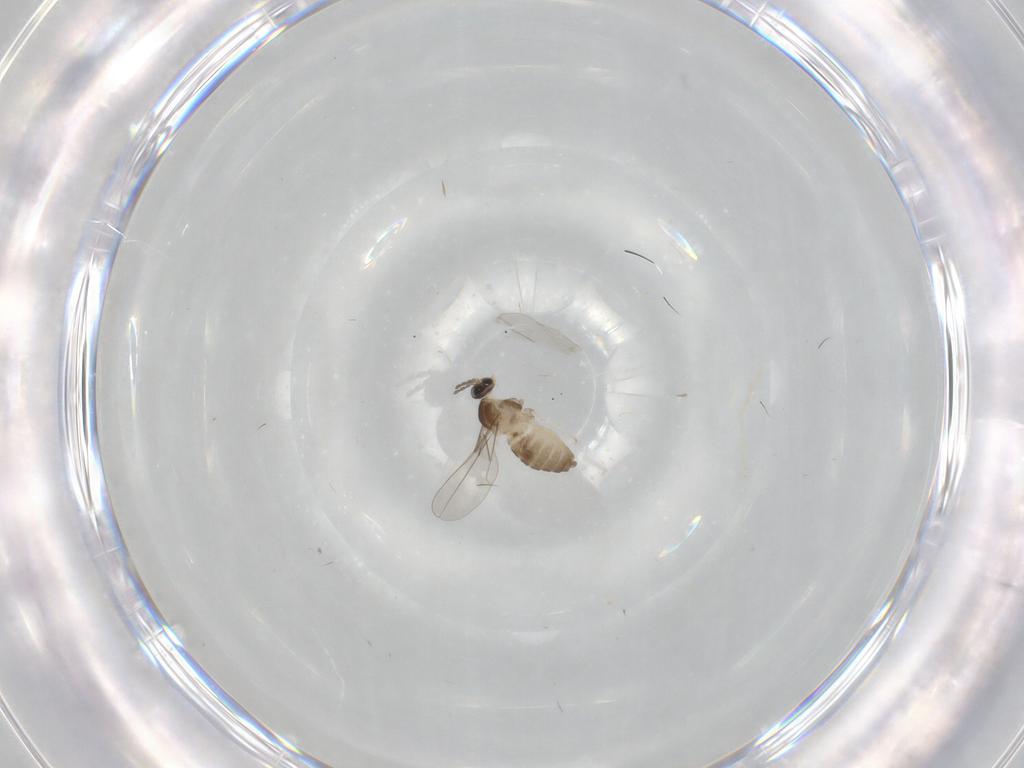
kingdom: Animalia
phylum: Arthropoda
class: Insecta
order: Diptera
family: Cecidomyiidae
